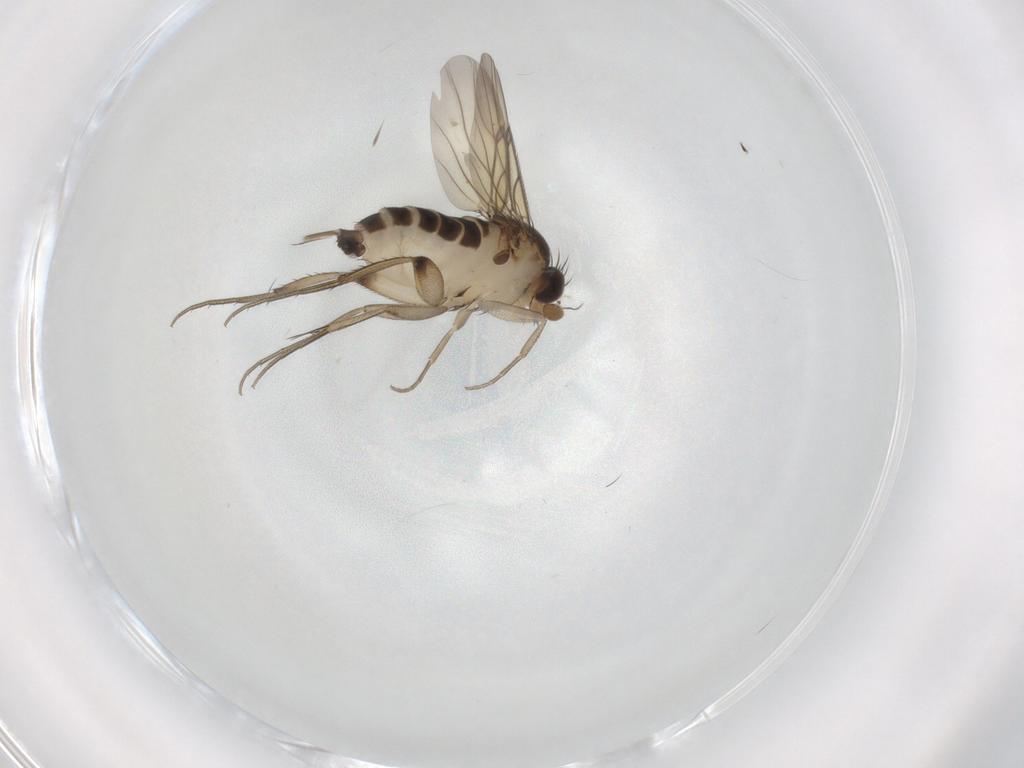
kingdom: Animalia
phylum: Arthropoda
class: Insecta
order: Diptera
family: Phoridae
